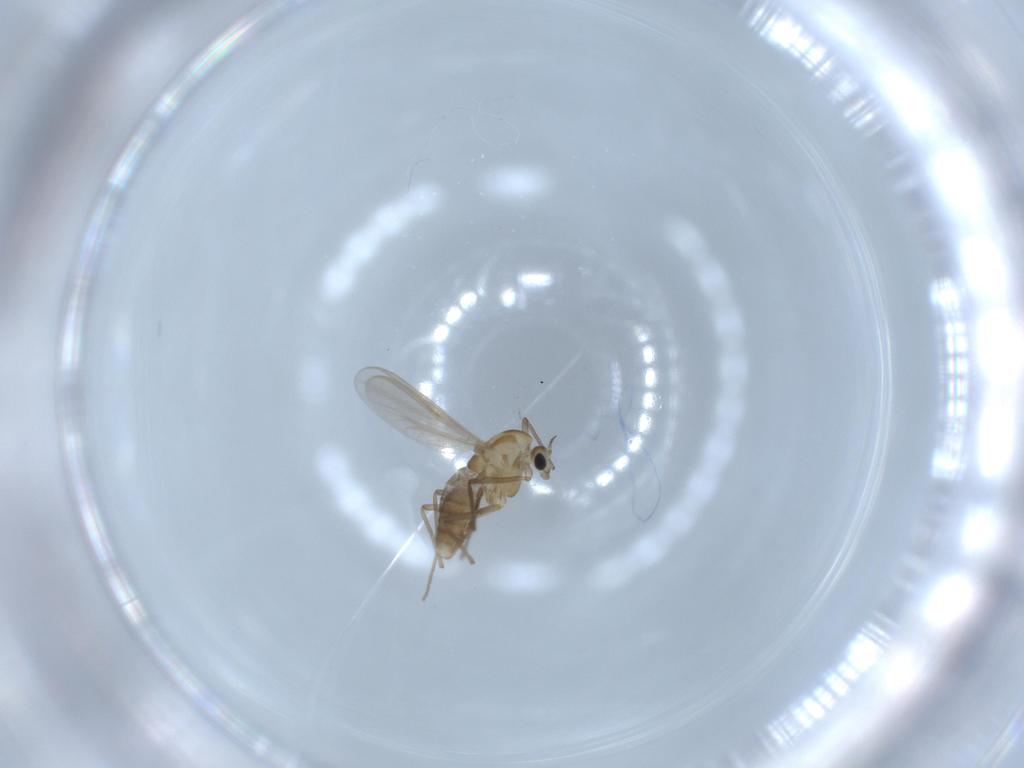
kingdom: Animalia
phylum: Arthropoda
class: Insecta
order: Diptera
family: Chironomidae
